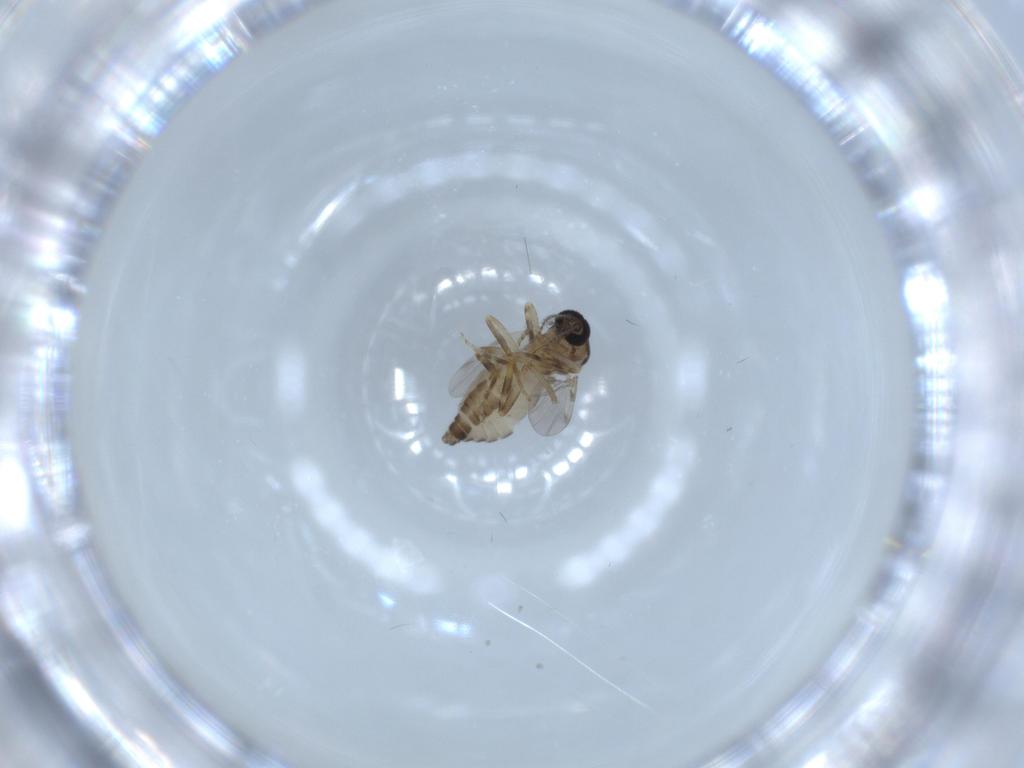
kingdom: Animalia
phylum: Arthropoda
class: Insecta
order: Diptera
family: Ceratopogonidae
